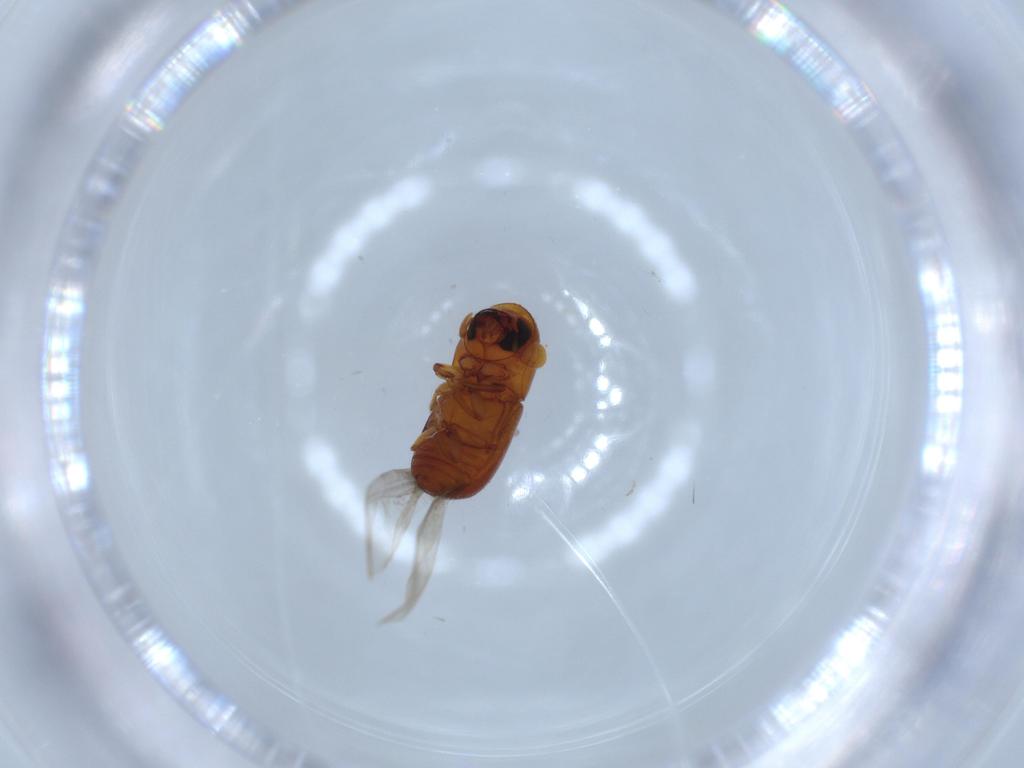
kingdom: Animalia
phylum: Arthropoda
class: Insecta
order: Coleoptera
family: Curculionidae
